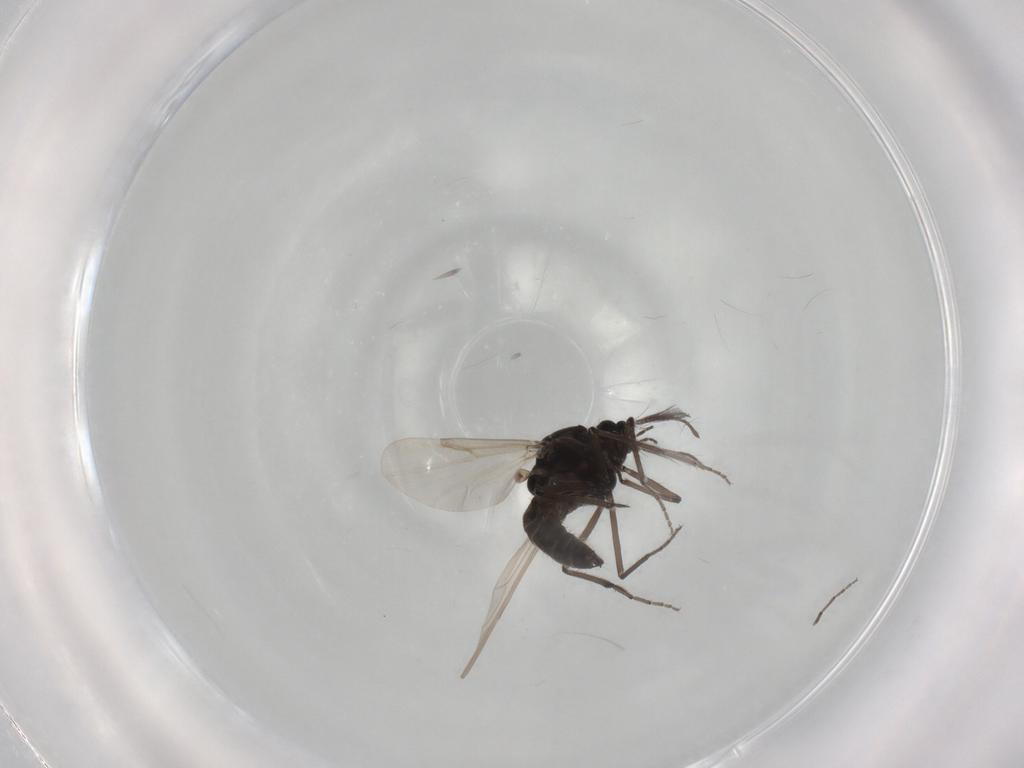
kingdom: Animalia
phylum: Arthropoda
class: Insecta
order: Diptera
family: Ceratopogonidae
